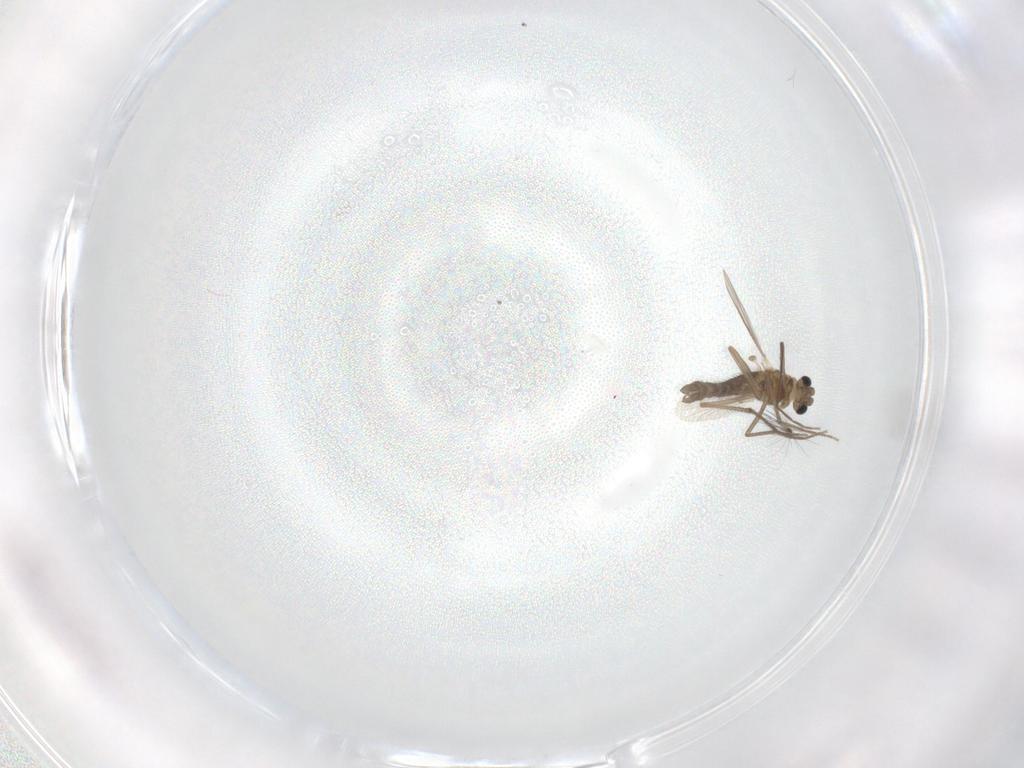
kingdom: Animalia
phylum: Arthropoda
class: Insecta
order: Diptera
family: Chironomidae
